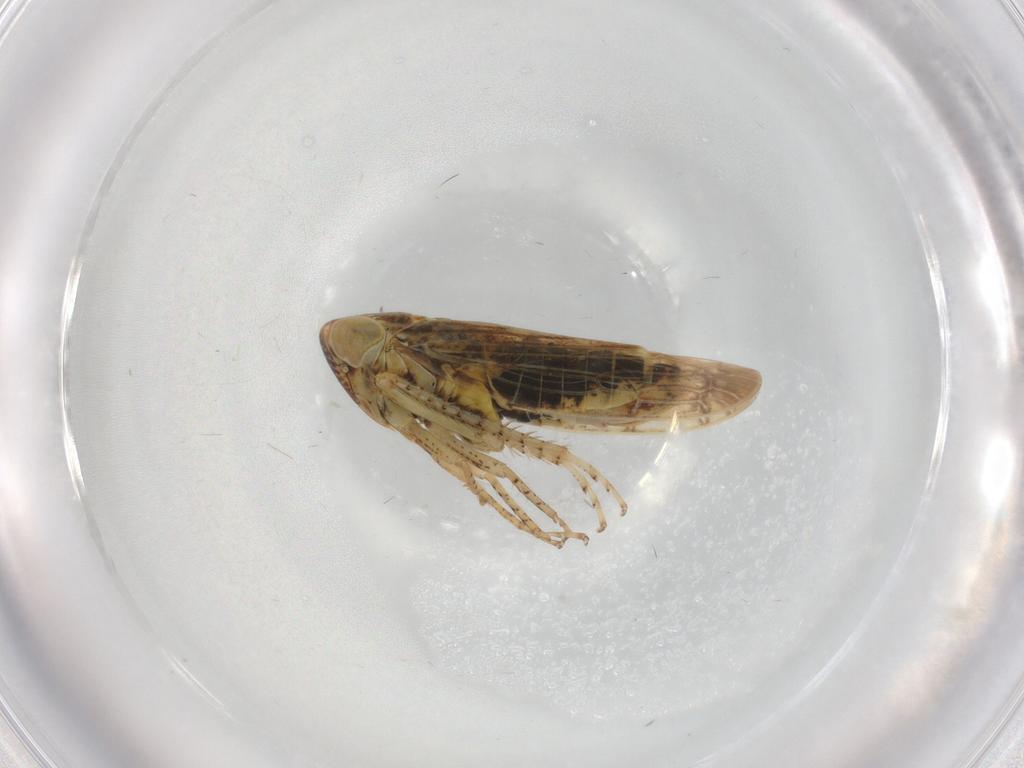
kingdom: Animalia
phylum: Arthropoda
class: Insecta
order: Hemiptera
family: Cicadellidae
